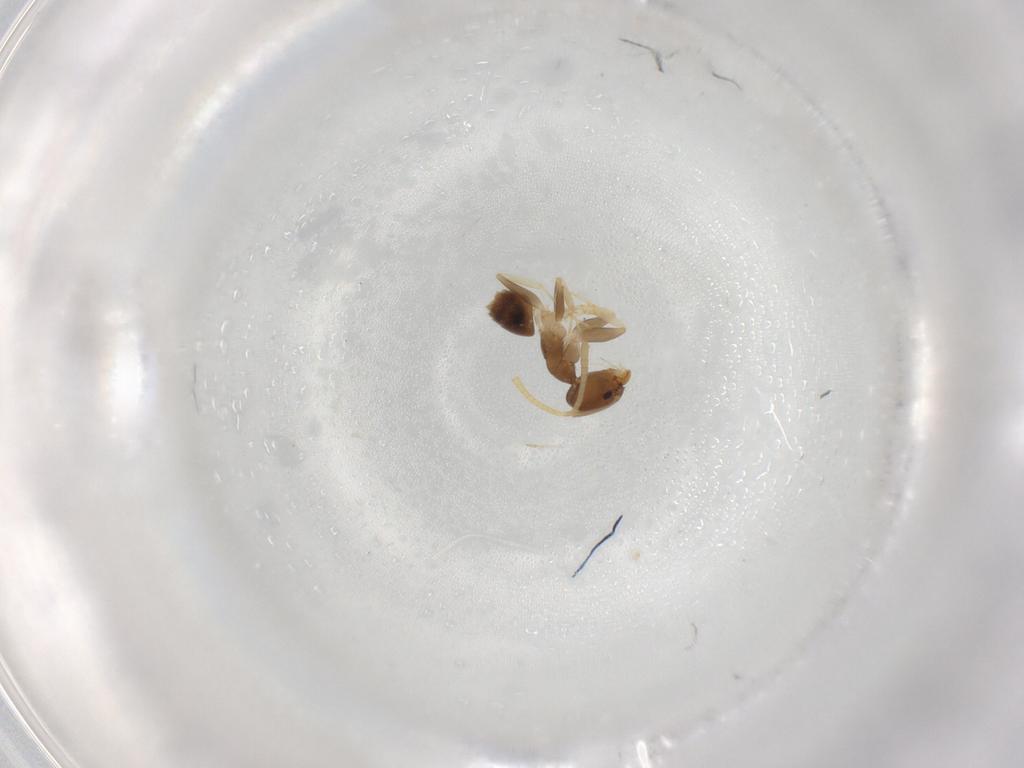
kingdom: Animalia
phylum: Arthropoda
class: Insecta
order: Hymenoptera
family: Formicidae
